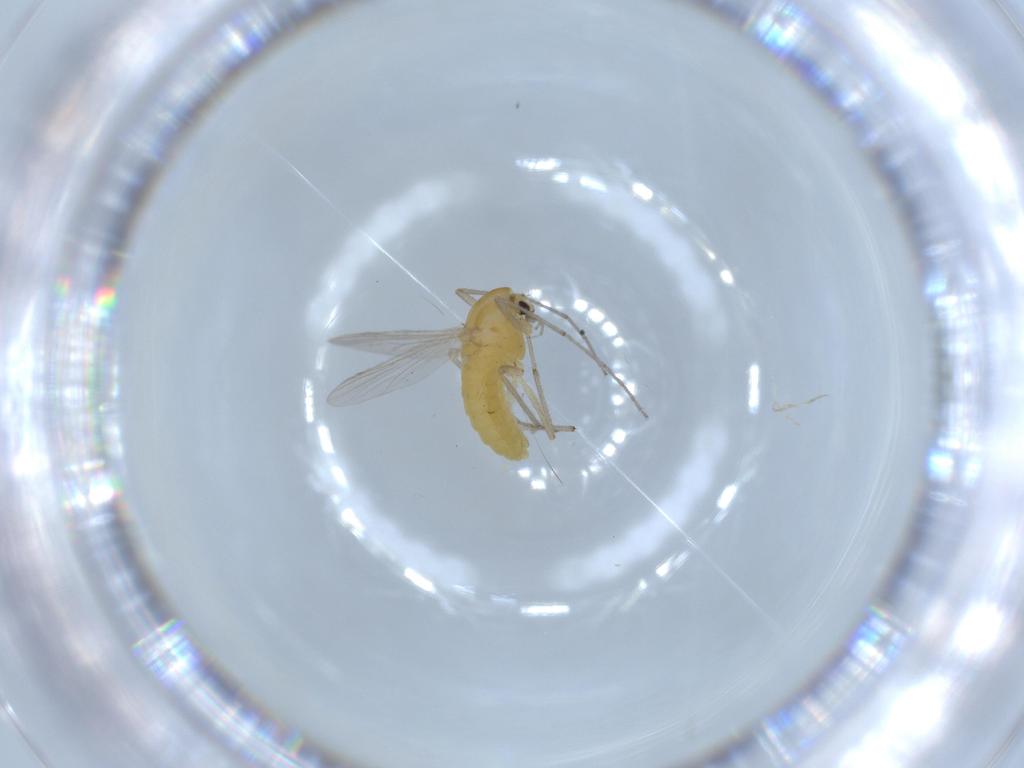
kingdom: Animalia
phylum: Arthropoda
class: Insecta
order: Diptera
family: Chironomidae
